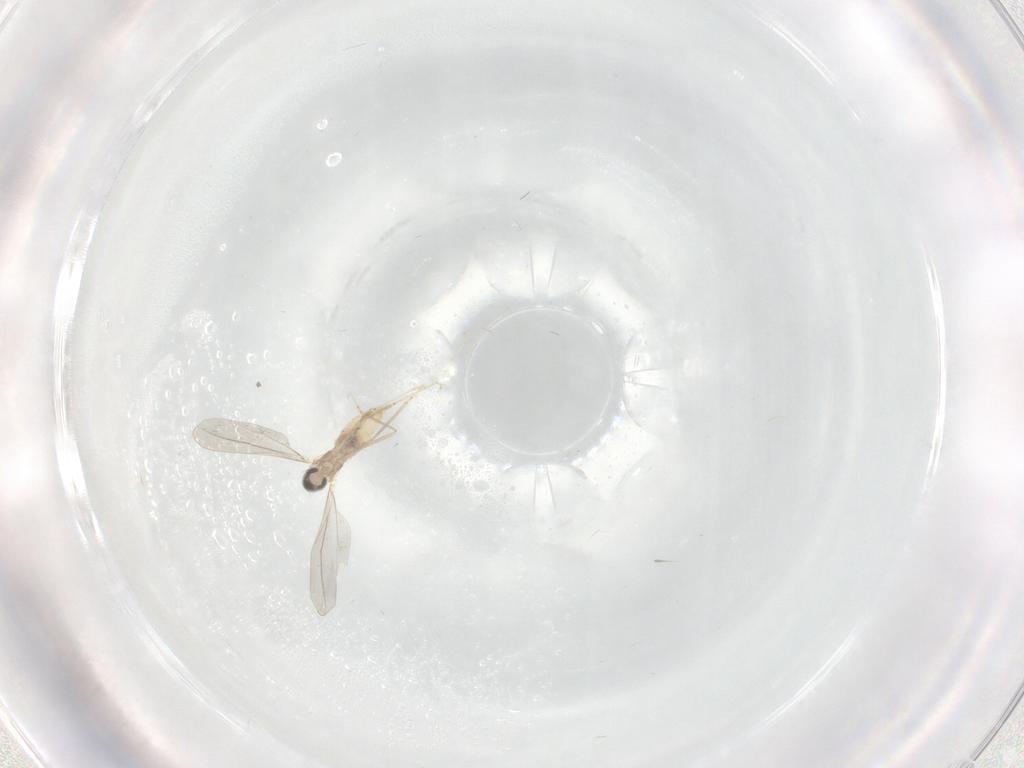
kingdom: Animalia
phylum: Arthropoda
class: Insecta
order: Diptera
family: Cecidomyiidae
